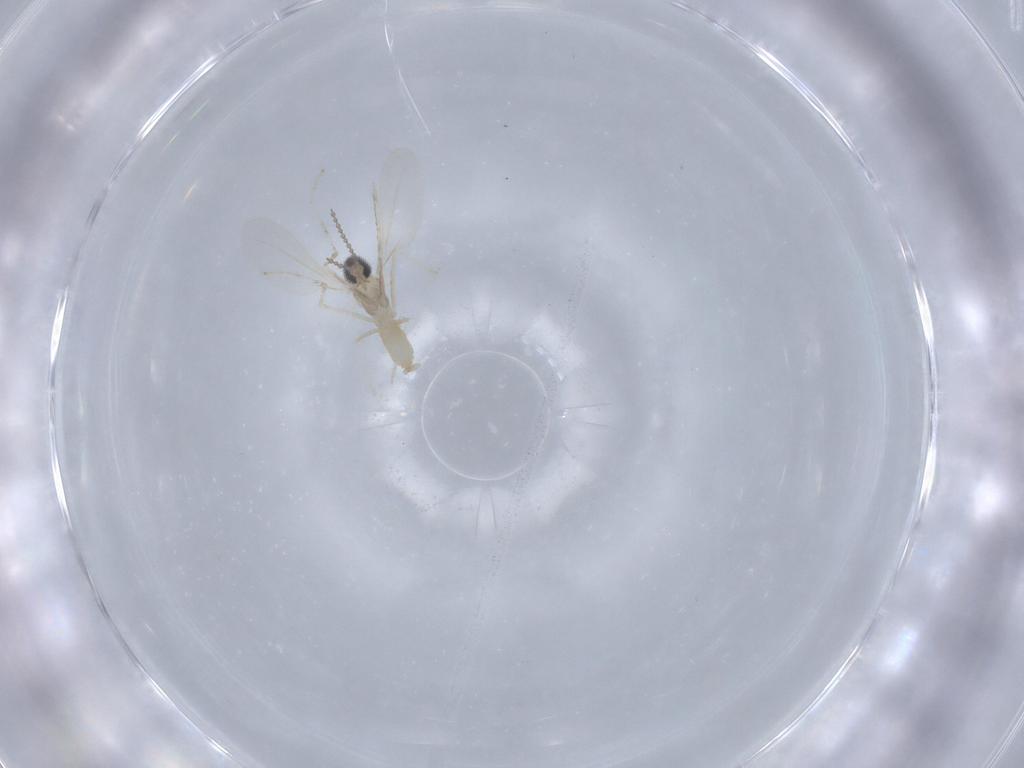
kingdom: Animalia
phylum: Arthropoda
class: Insecta
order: Diptera
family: Cecidomyiidae
